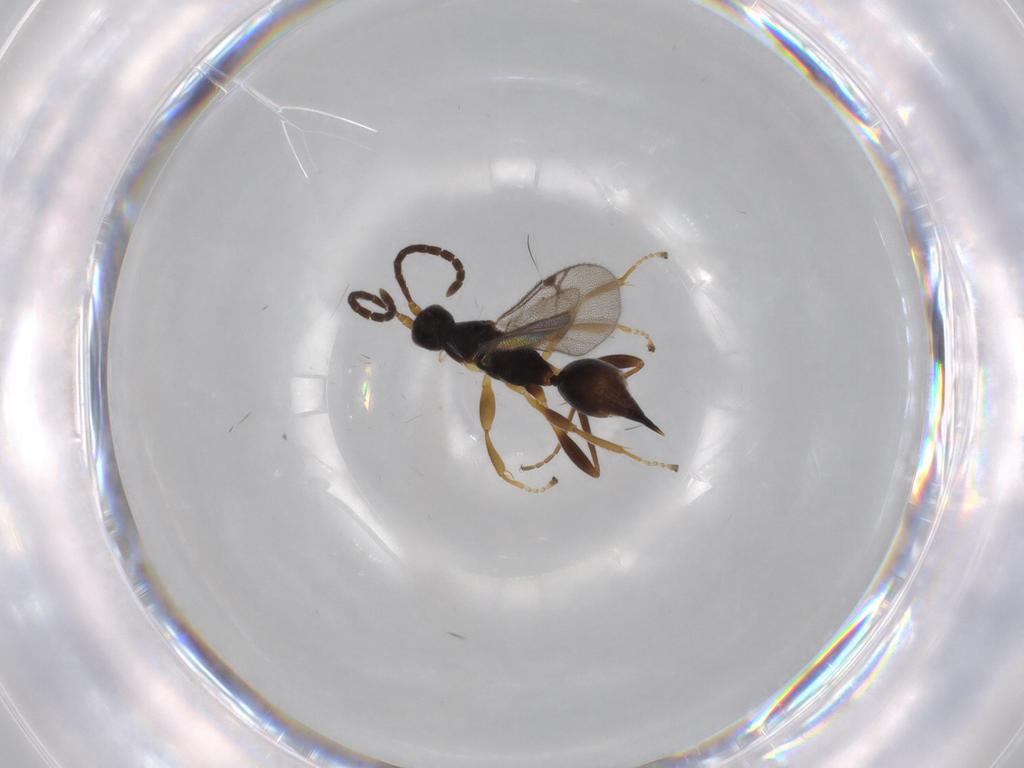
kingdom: Animalia
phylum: Arthropoda
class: Insecta
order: Hymenoptera
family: Proctotrupidae
